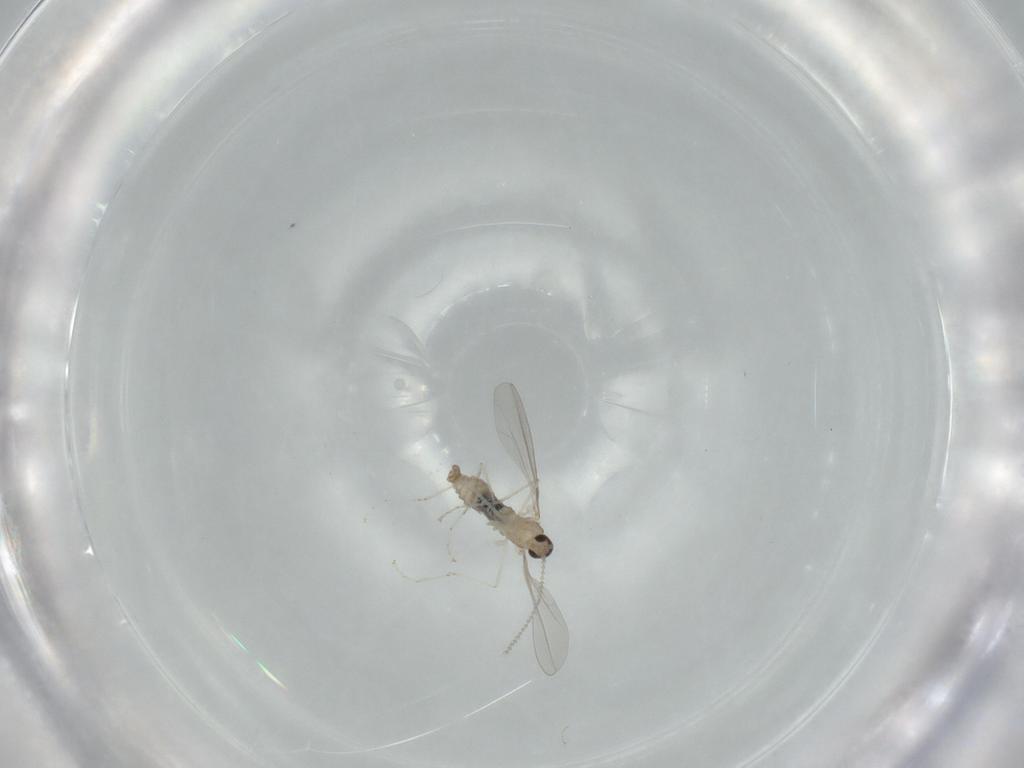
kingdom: Animalia
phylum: Arthropoda
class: Insecta
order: Diptera
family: Cecidomyiidae
